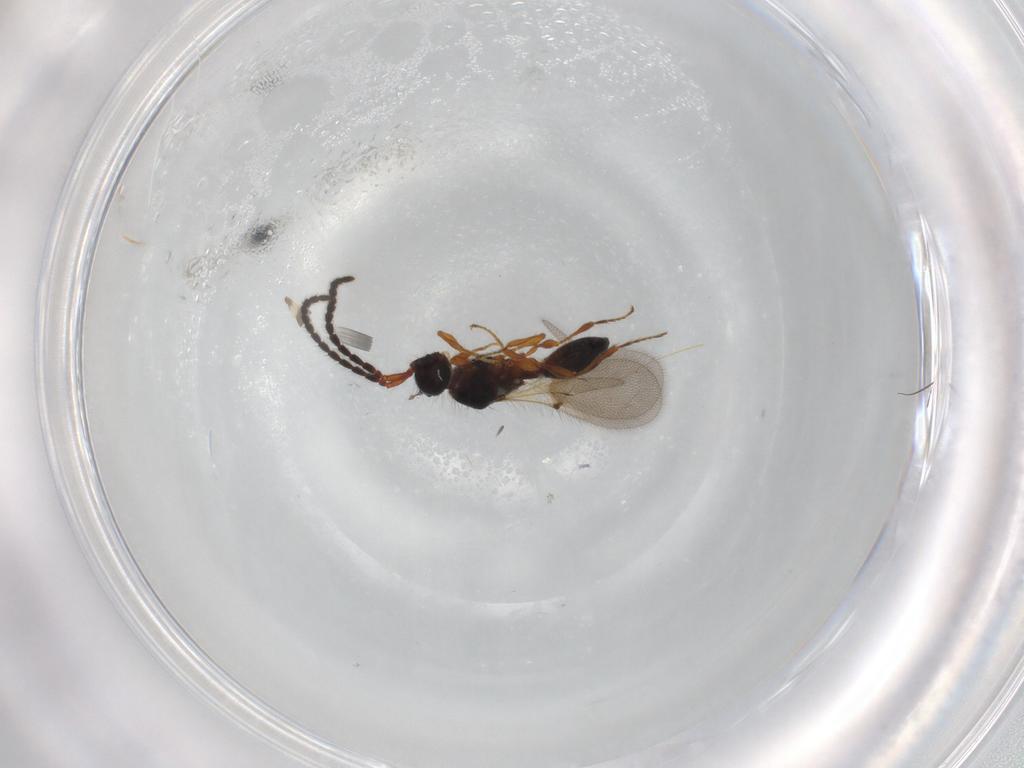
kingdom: Animalia
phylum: Arthropoda
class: Insecta
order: Hymenoptera
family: Diapriidae
